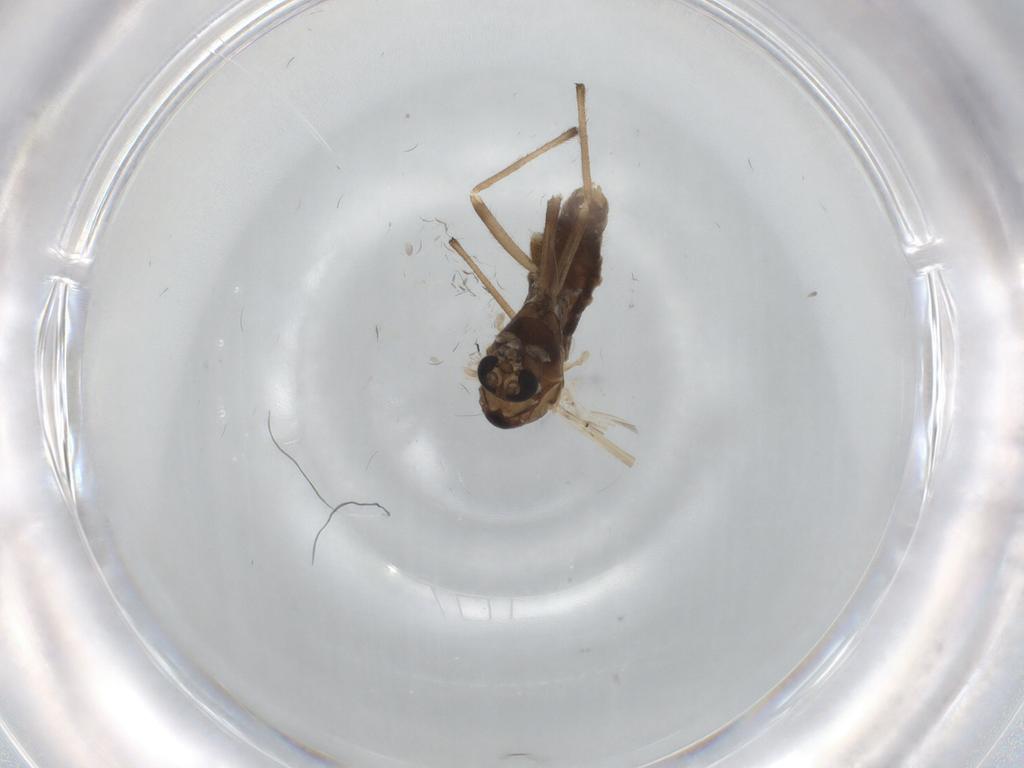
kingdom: Animalia
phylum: Arthropoda
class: Insecta
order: Diptera
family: Chironomidae
